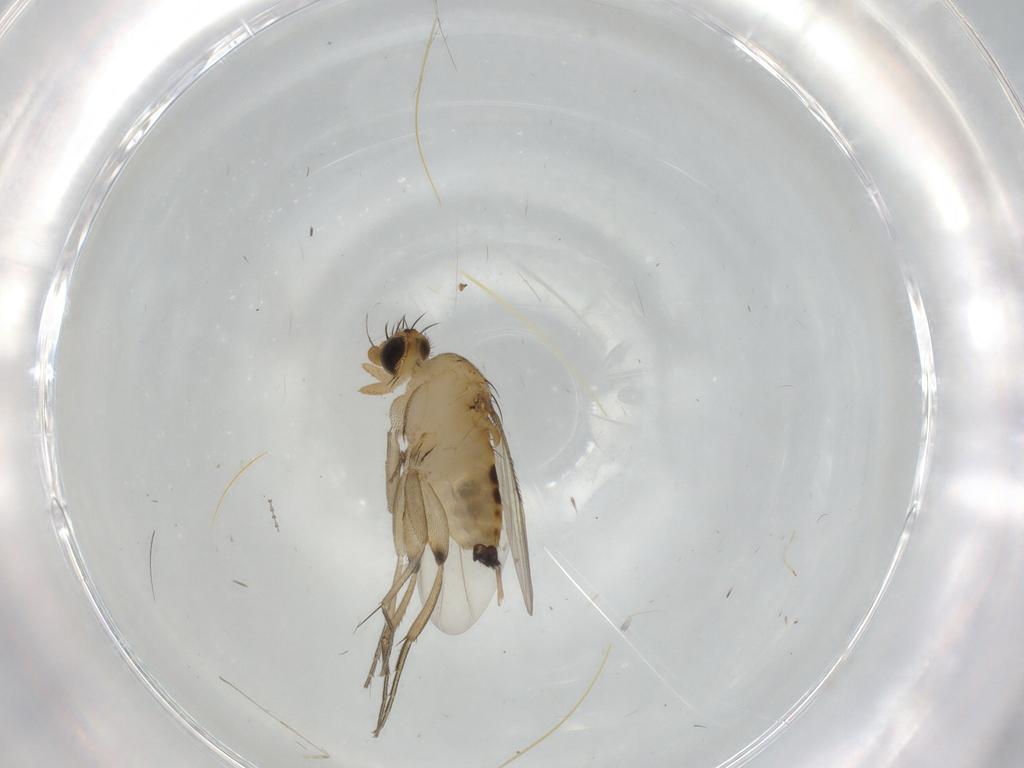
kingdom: Animalia
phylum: Arthropoda
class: Insecta
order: Diptera
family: Phoridae
